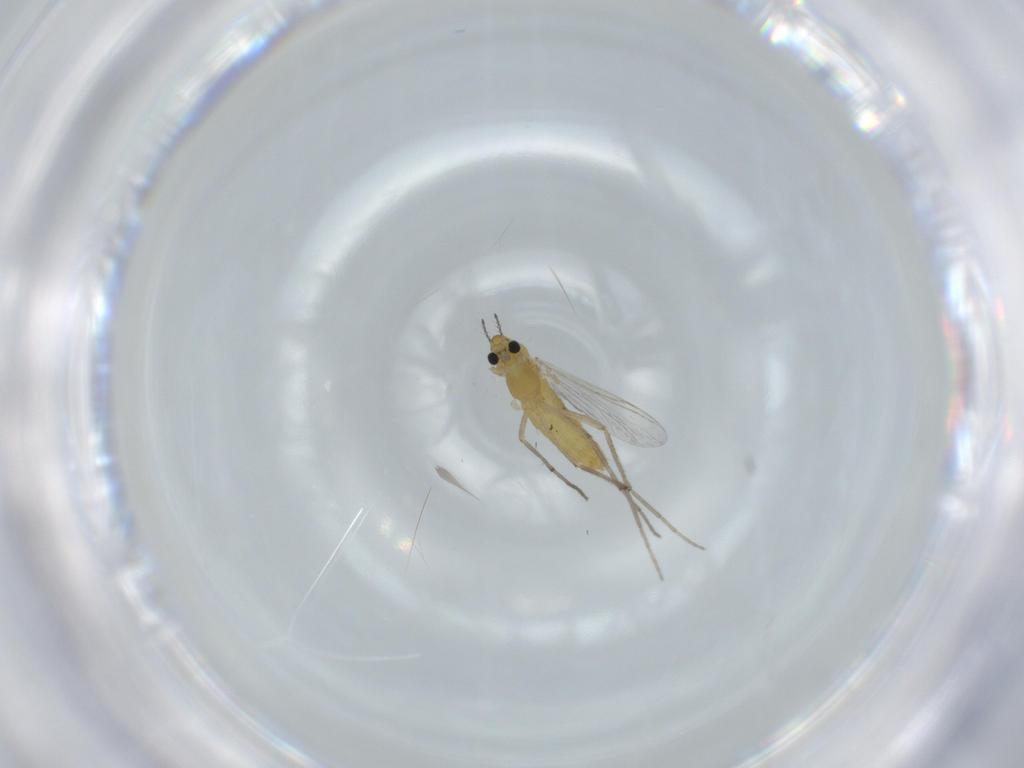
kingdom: Animalia
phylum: Arthropoda
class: Insecta
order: Diptera
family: Chironomidae
